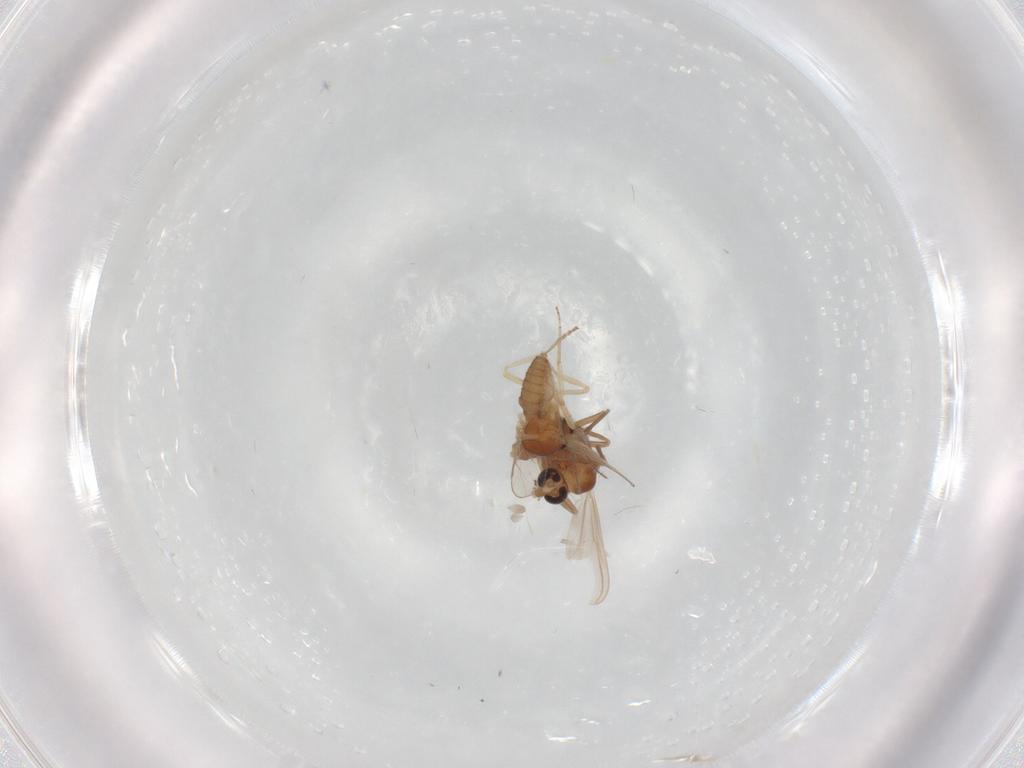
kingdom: Animalia
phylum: Arthropoda
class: Insecta
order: Diptera
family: Chironomidae
